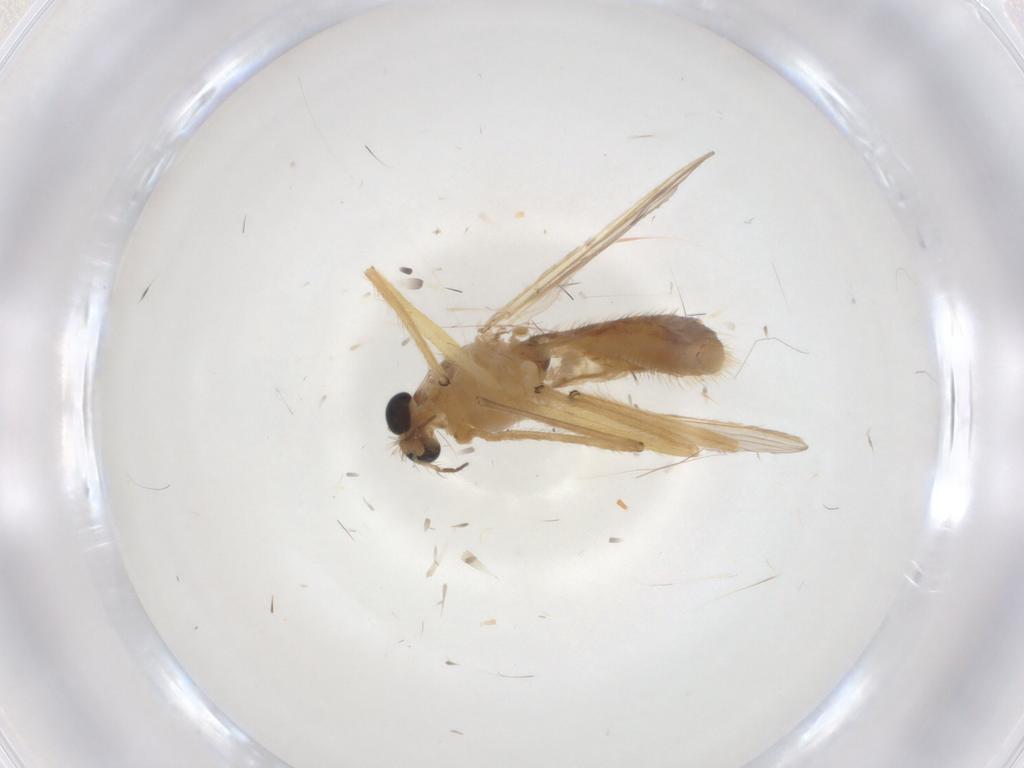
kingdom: Animalia
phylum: Arthropoda
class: Insecta
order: Diptera
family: Chironomidae
